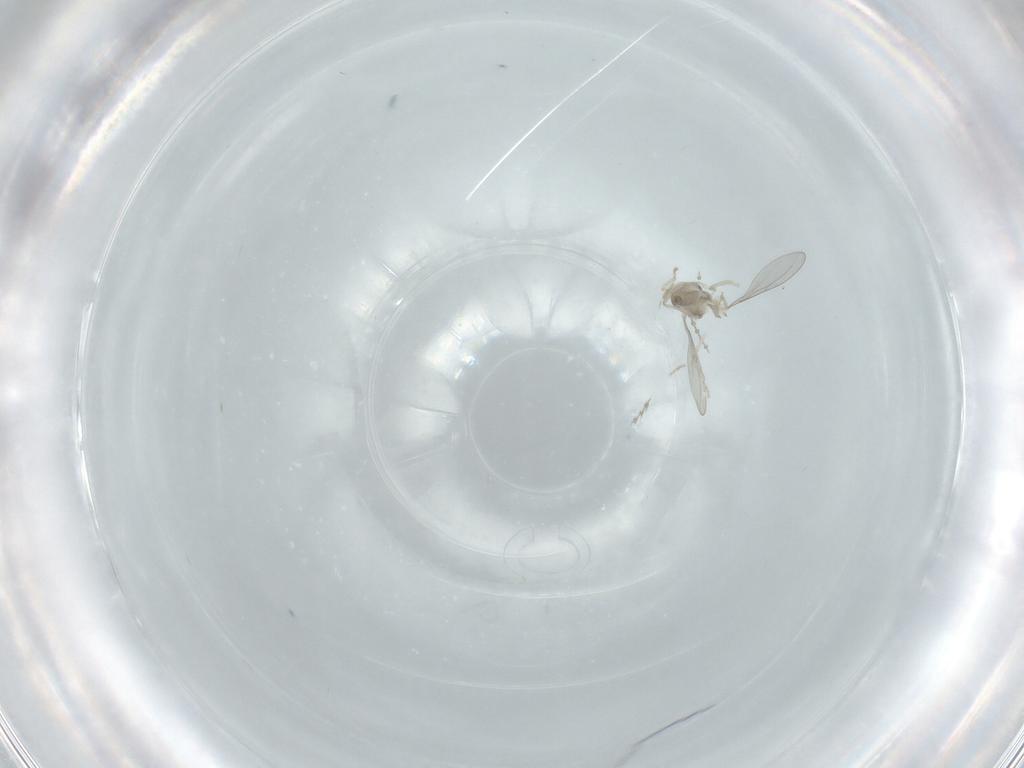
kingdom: Animalia
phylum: Arthropoda
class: Insecta
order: Diptera
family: Cecidomyiidae
